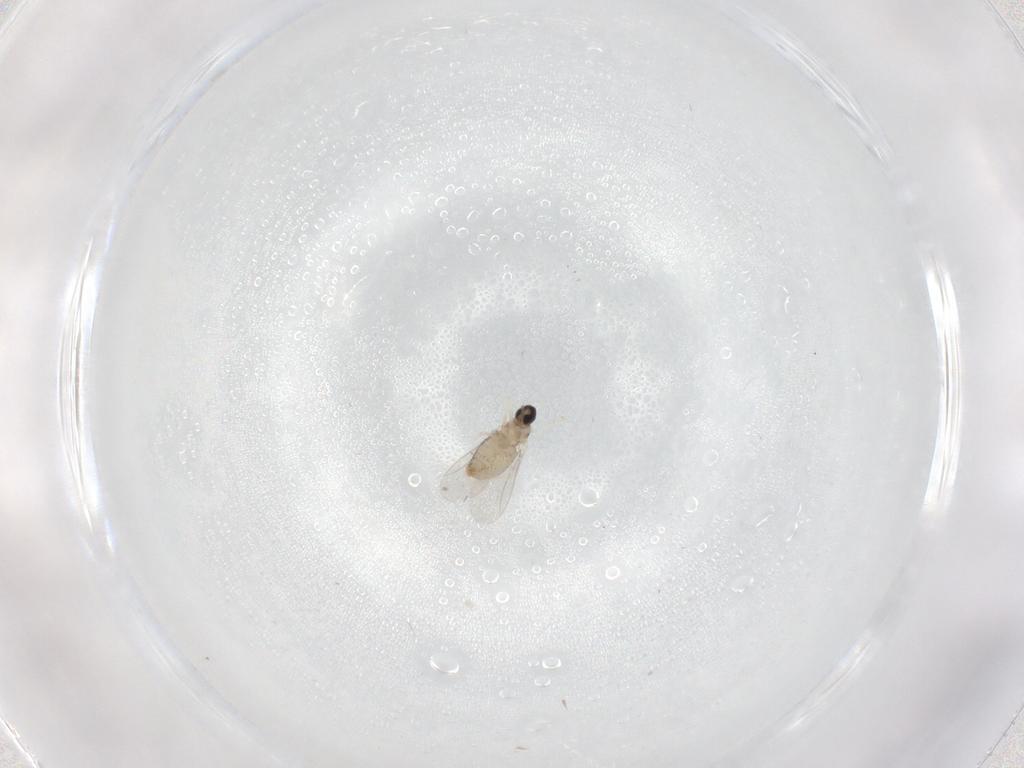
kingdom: Animalia
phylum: Arthropoda
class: Insecta
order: Diptera
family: Cecidomyiidae
